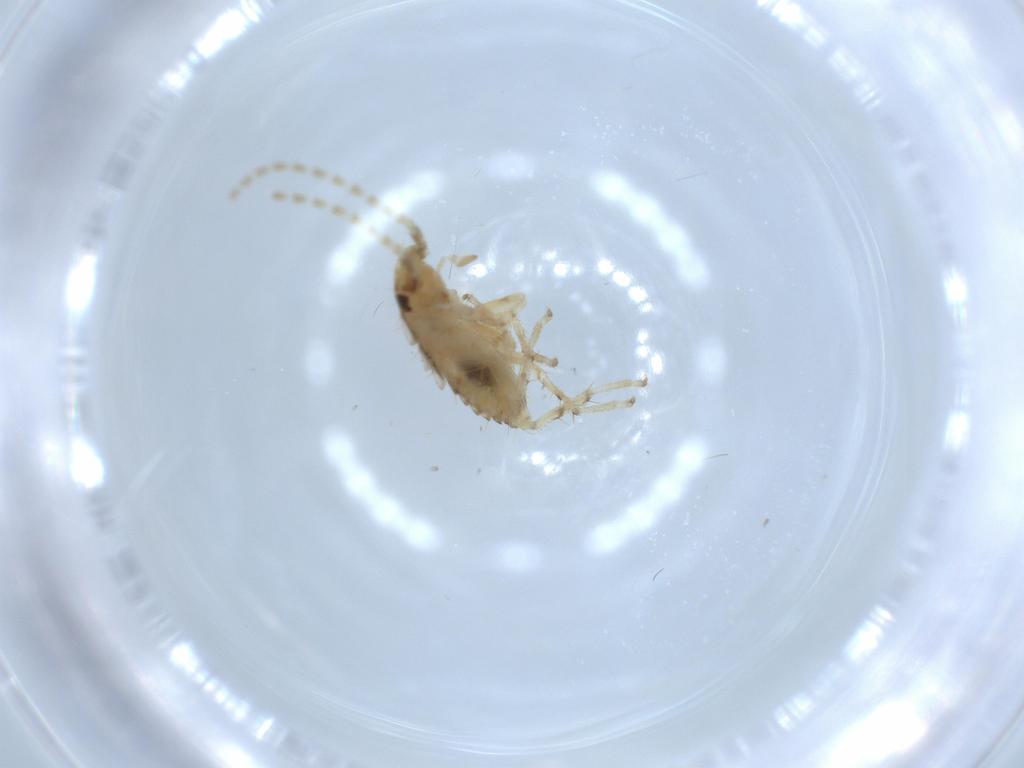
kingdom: Animalia
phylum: Arthropoda
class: Insecta
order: Blattodea
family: Ectobiidae
